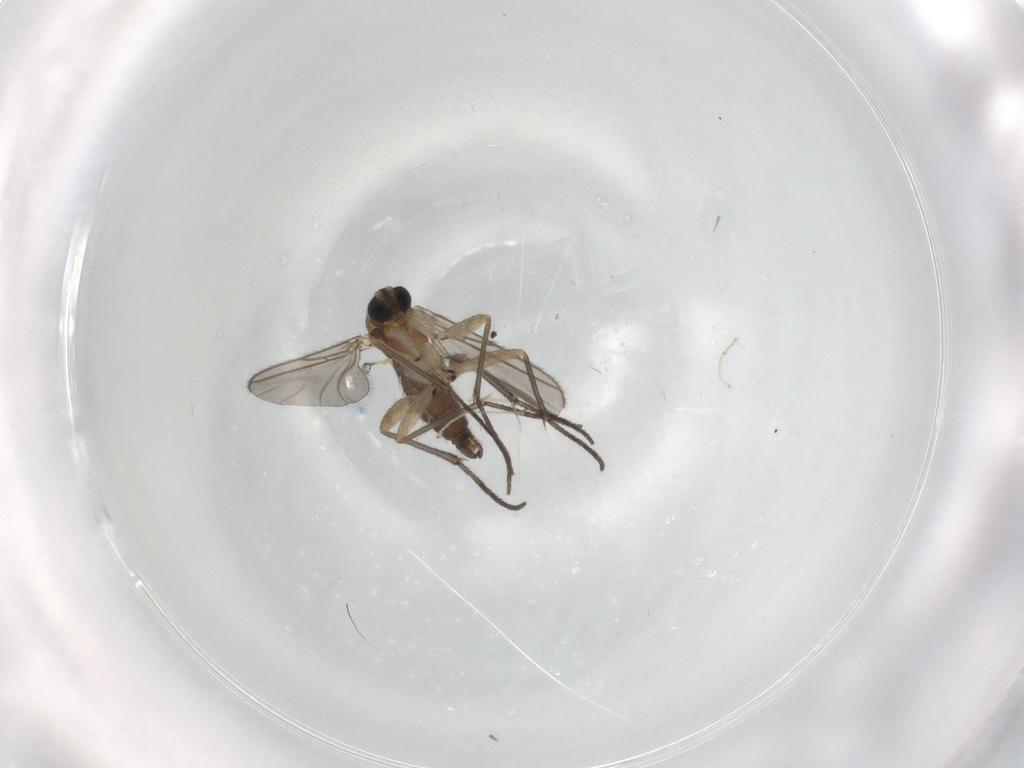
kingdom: Animalia
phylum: Arthropoda
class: Insecta
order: Diptera
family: Sciaridae
